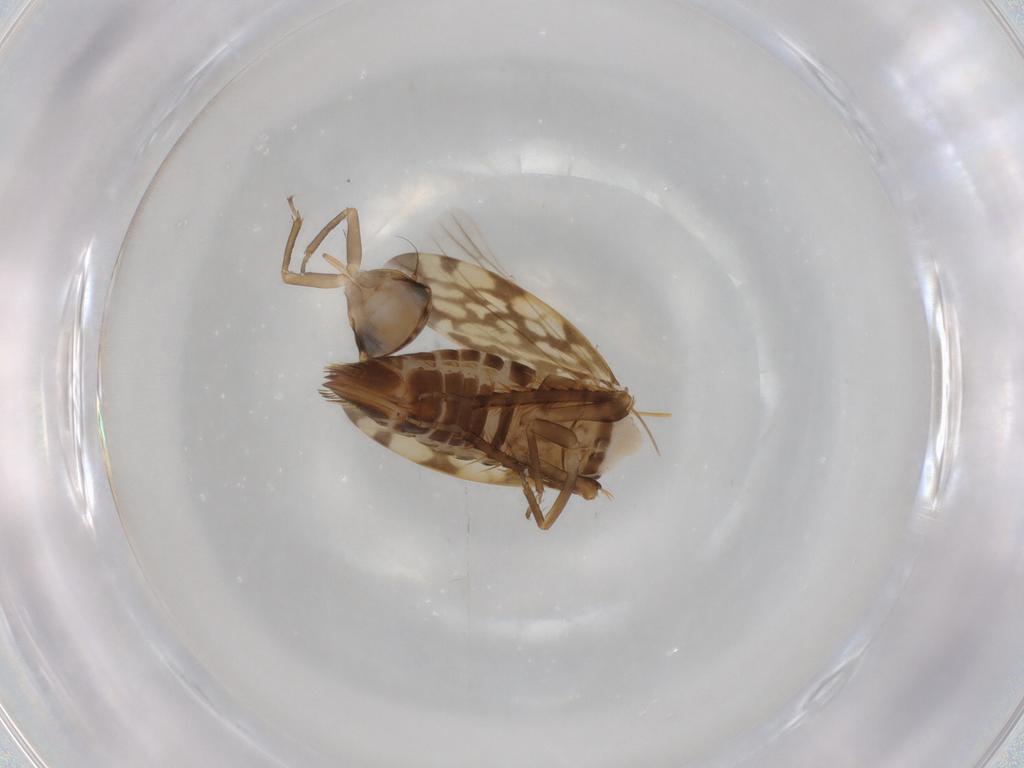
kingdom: Animalia
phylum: Arthropoda
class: Insecta
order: Hemiptera
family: Cicadellidae
